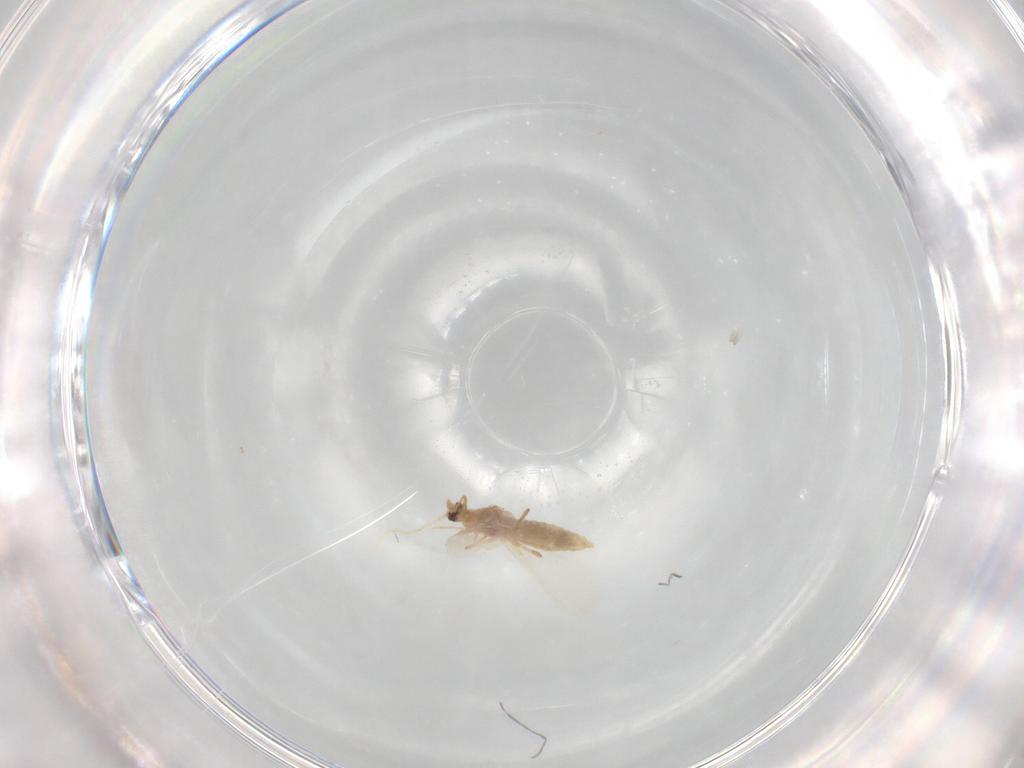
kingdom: Animalia
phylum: Arthropoda
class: Insecta
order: Hemiptera
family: Pseudococcidae
